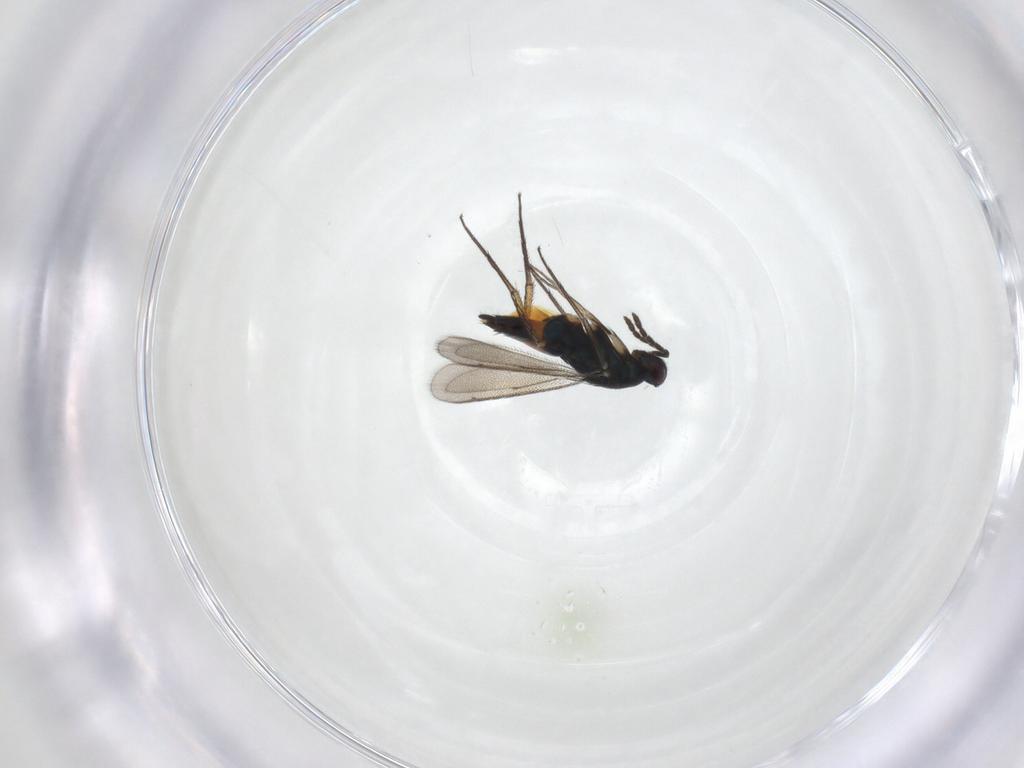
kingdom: Animalia
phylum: Arthropoda
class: Insecta
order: Hymenoptera
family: Eulophidae
